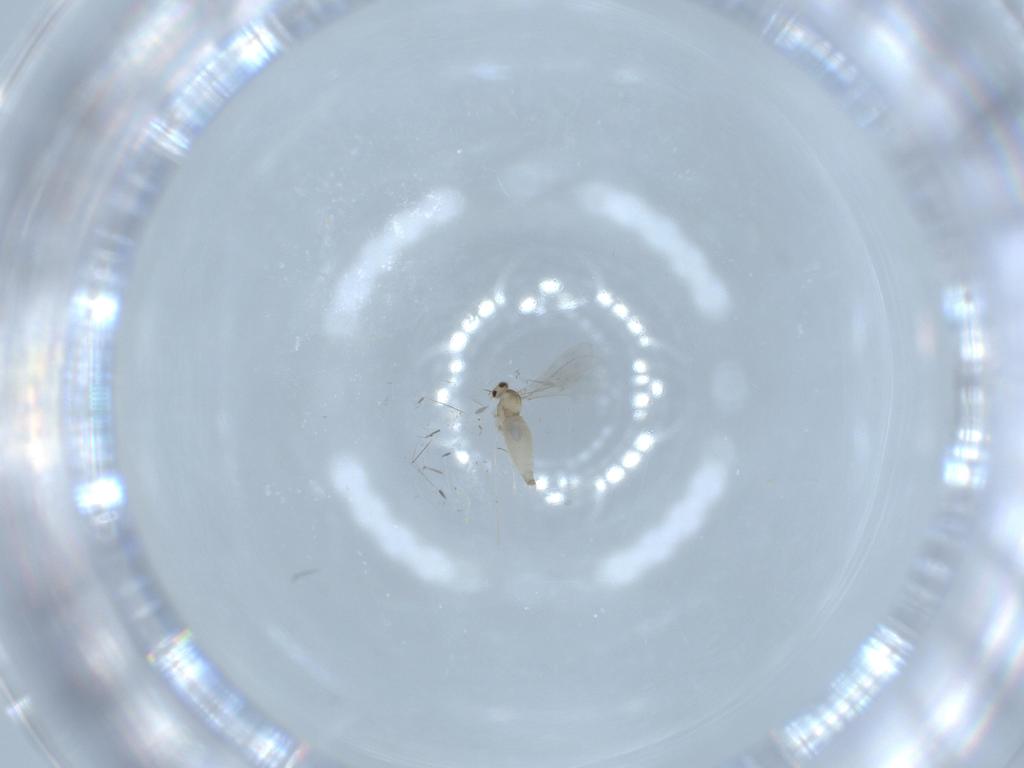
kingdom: Animalia
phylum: Arthropoda
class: Insecta
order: Diptera
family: Cecidomyiidae
